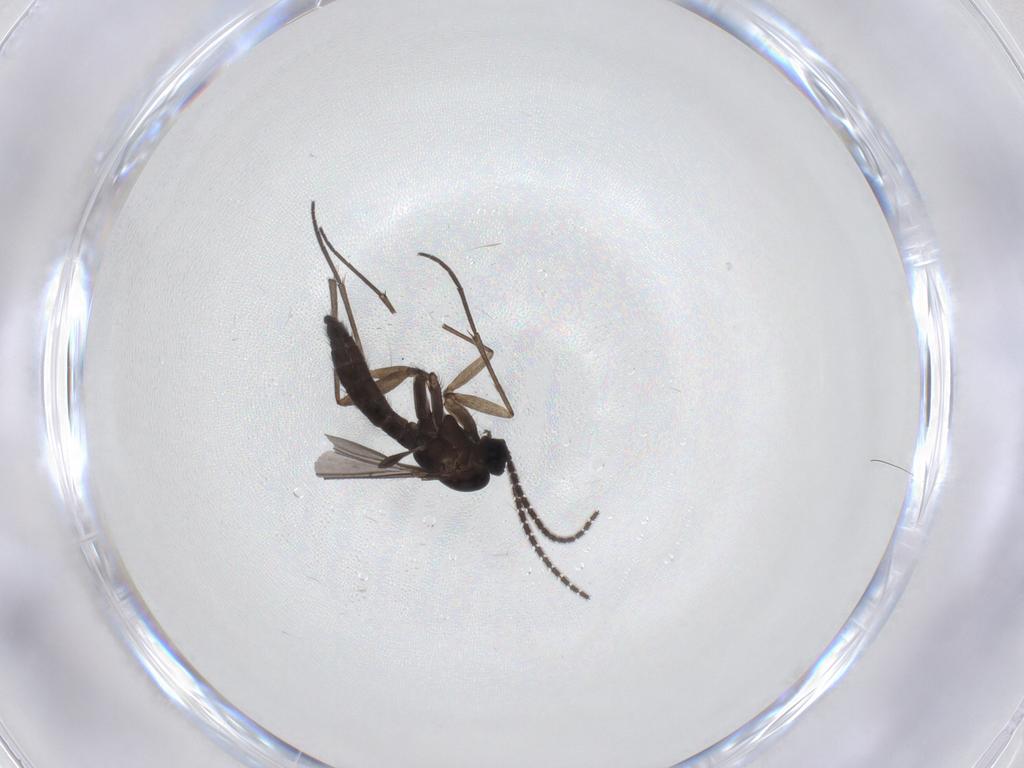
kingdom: Animalia
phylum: Arthropoda
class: Insecta
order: Diptera
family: Sciaridae
